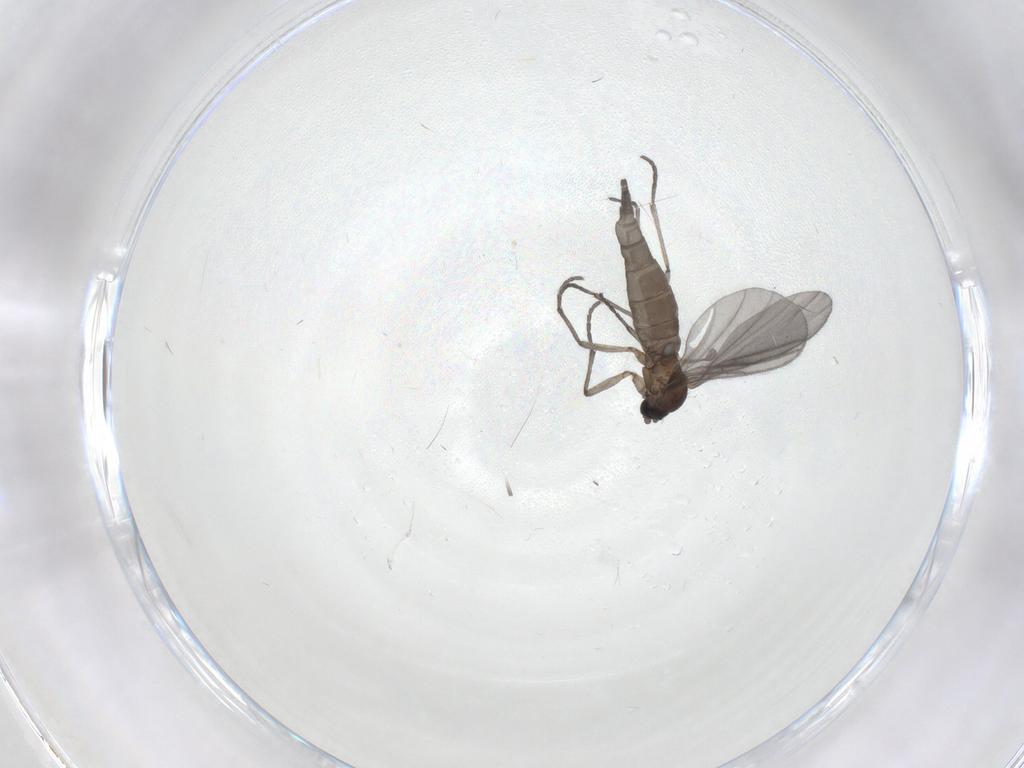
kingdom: Animalia
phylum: Arthropoda
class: Insecta
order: Diptera
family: Sciaridae
